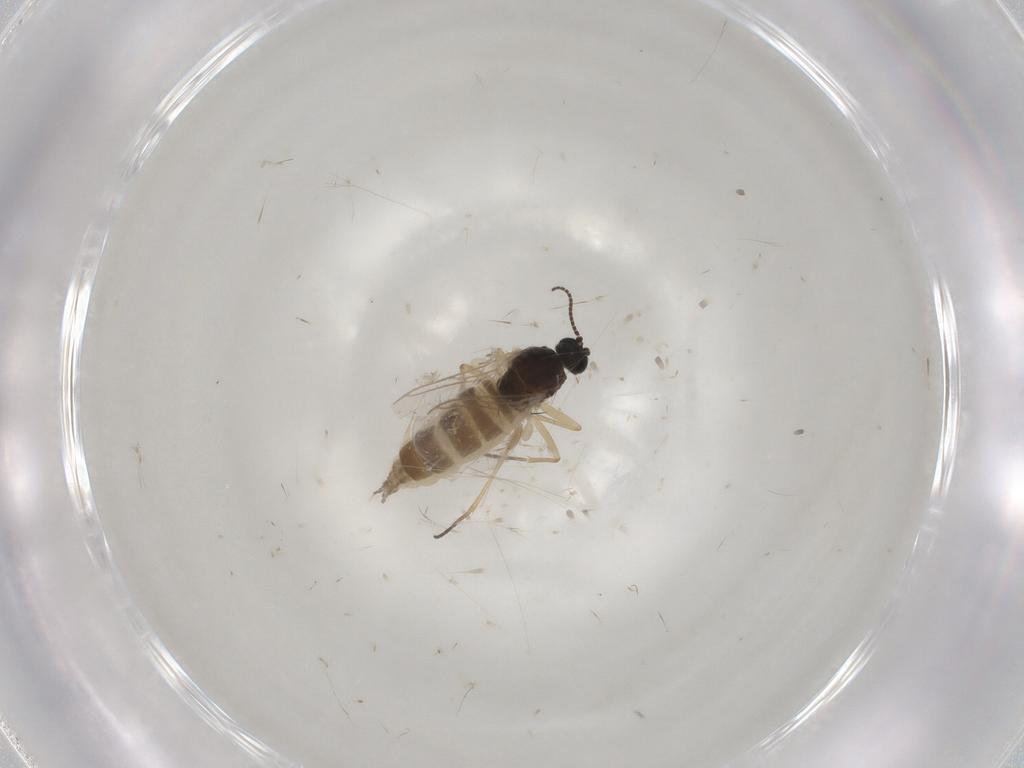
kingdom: Animalia
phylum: Arthropoda
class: Insecta
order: Diptera
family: Sciaridae
